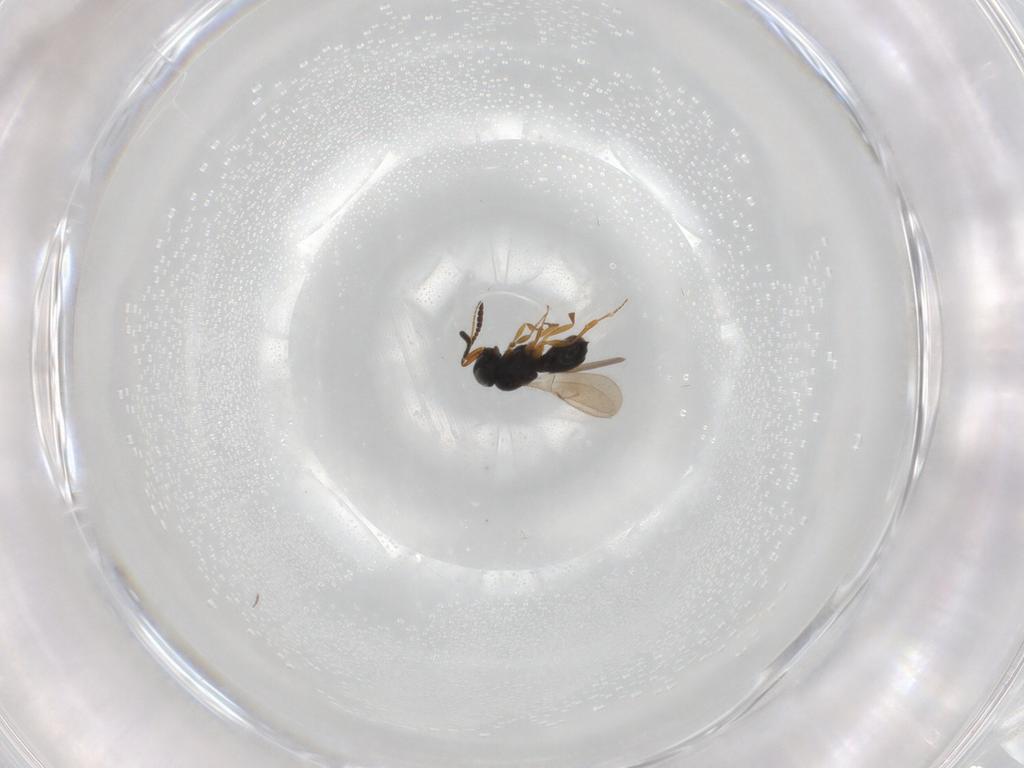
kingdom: Animalia
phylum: Arthropoda
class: Insecta
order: Hymenoptera
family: Scelionidae
